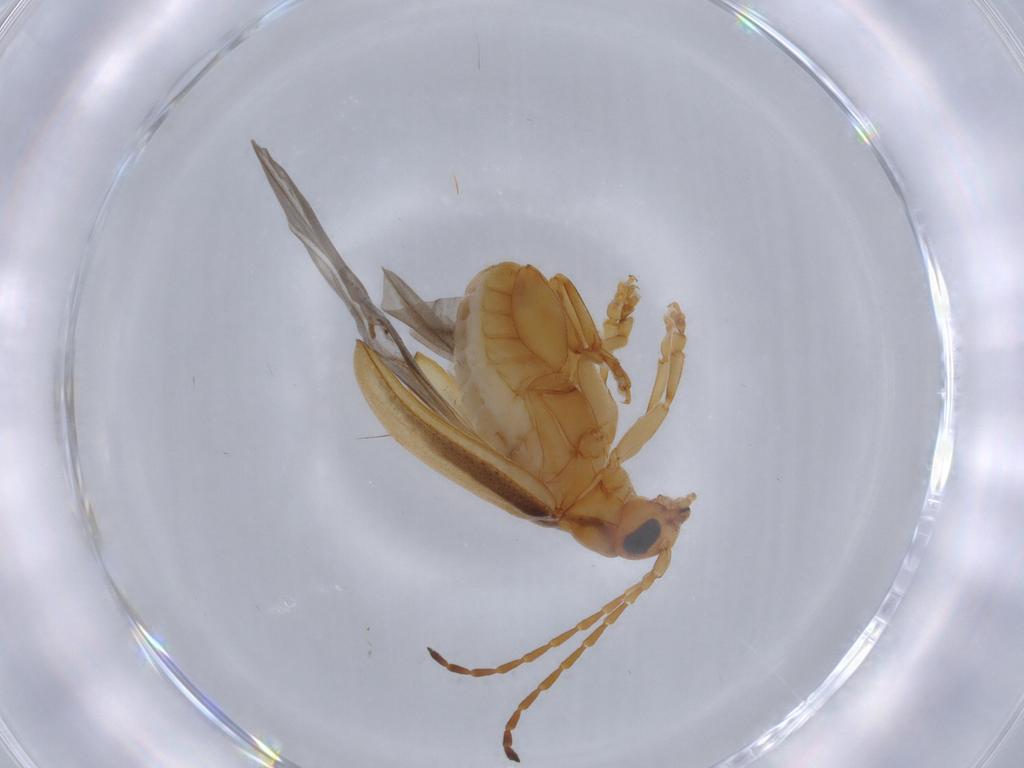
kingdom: Animalia
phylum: Arthropoda
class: Insecta
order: Coleoptera
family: Chrysomelidae
